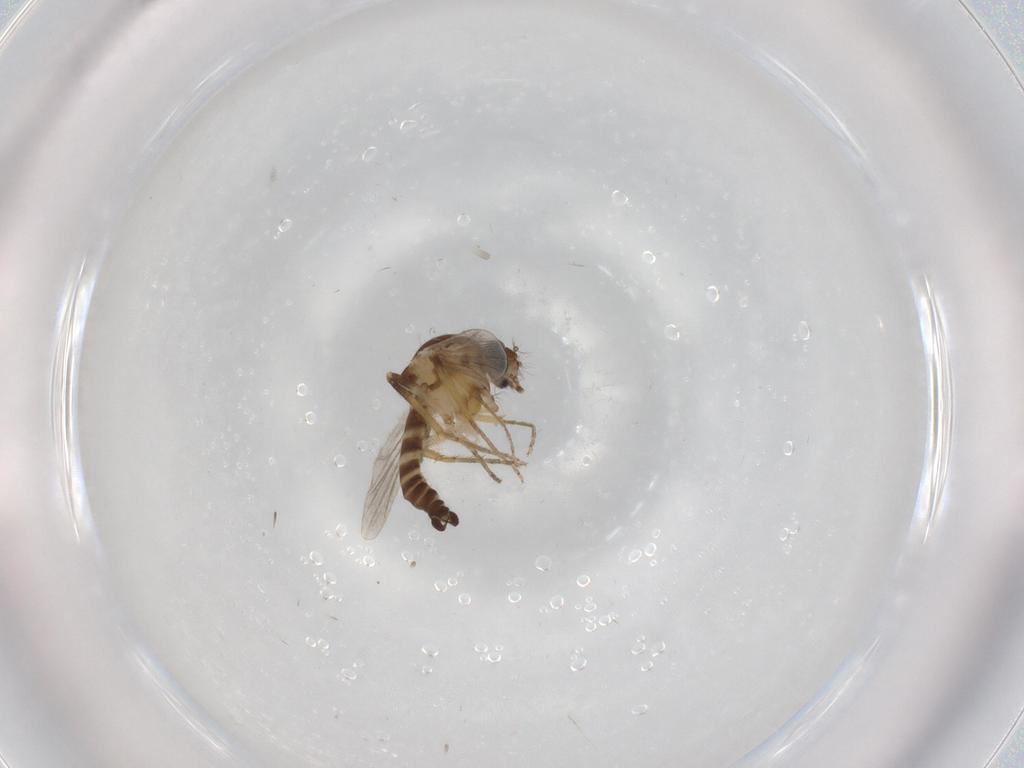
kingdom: Animalia
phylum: Arthropoda
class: Insecta
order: Diptera
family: Ceratopogonidae
